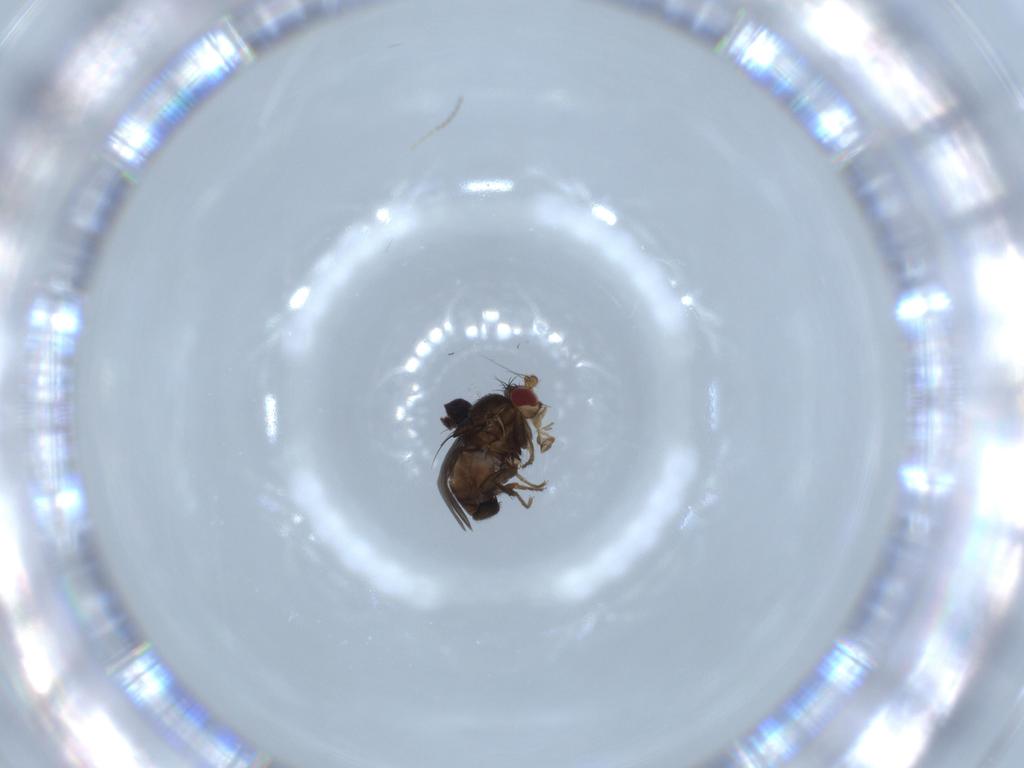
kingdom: Animalia
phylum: Arthropoda
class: Insecta
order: Diptera
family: Dolichopodidae
